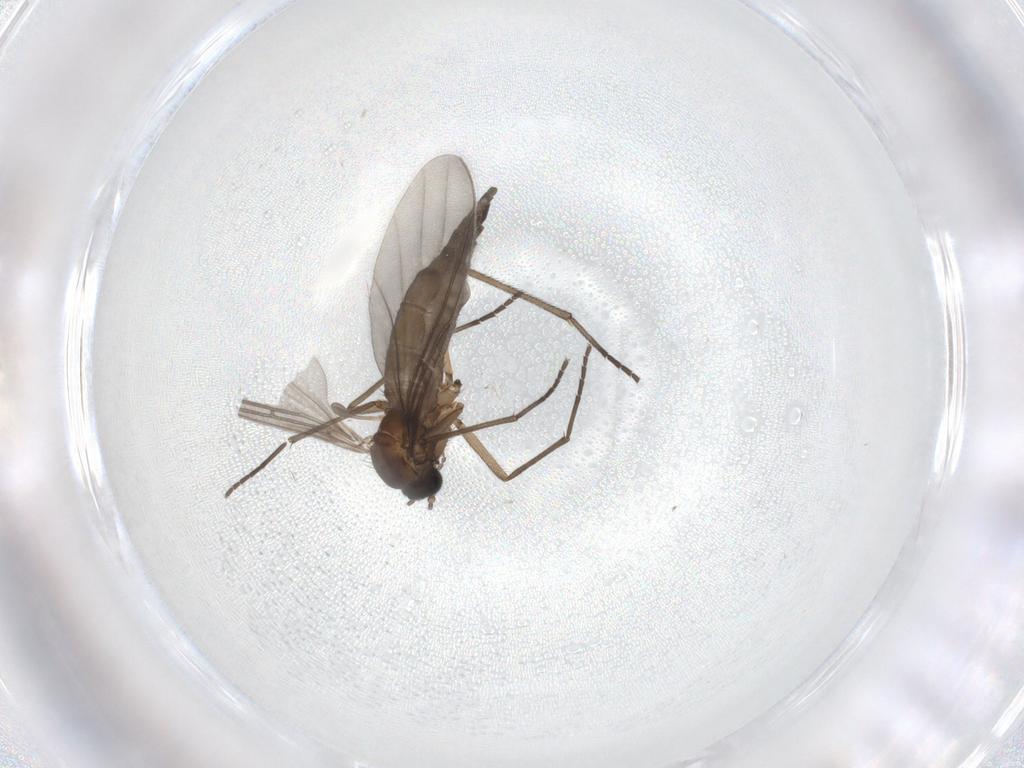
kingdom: Animalia
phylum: Arthropoda
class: Insecta
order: Diptera
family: Sciaridae
